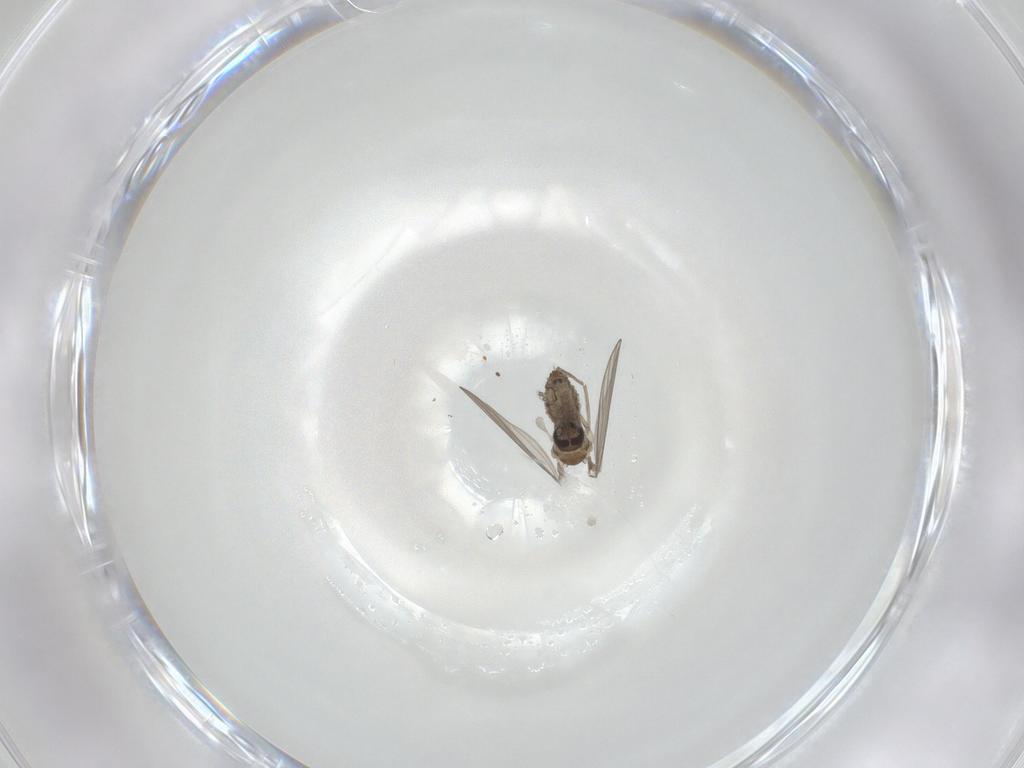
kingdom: Animalia
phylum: Arthropoda
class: Insecta
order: Diptera
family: Psychodidae
